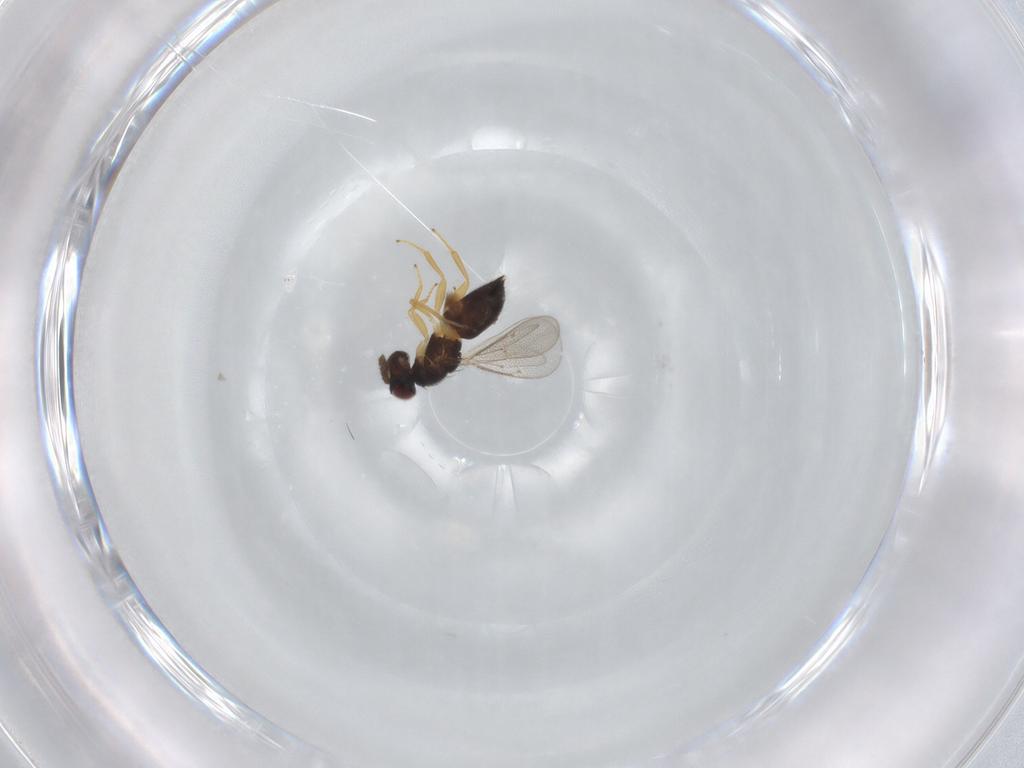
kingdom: Animalia
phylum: Arthropoda
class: Insecta
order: Hymenoptera
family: Eulophidae
